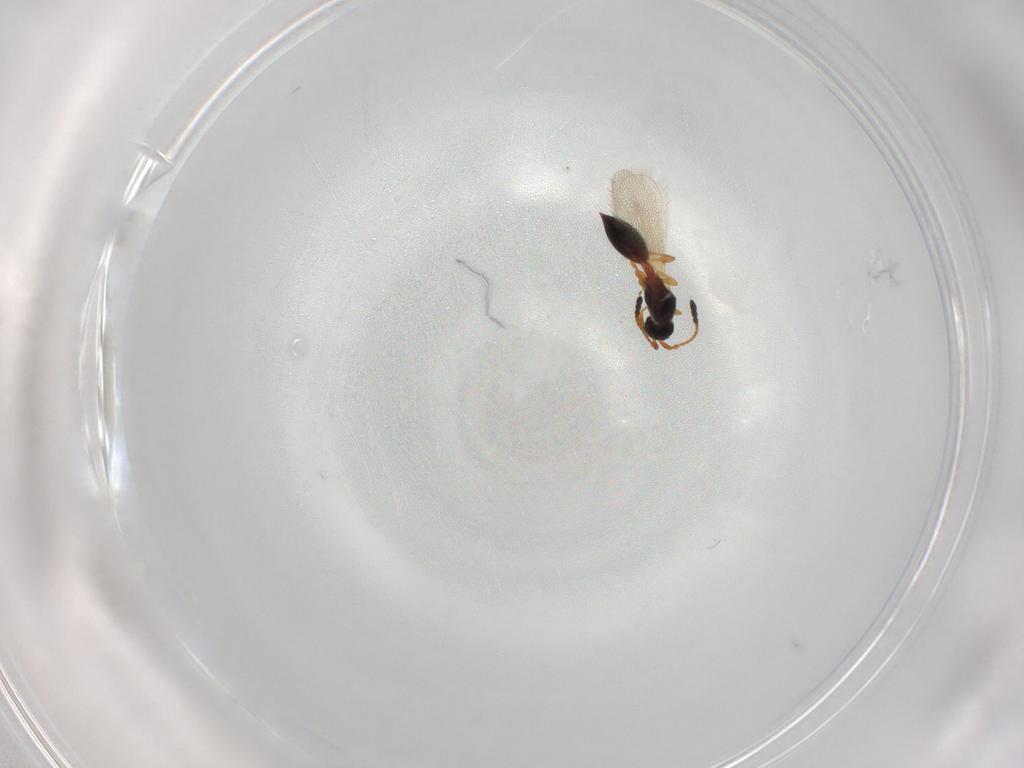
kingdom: Animalia
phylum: Arthropoda
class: Insecta
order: Hymenoptera
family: Diapriidae
